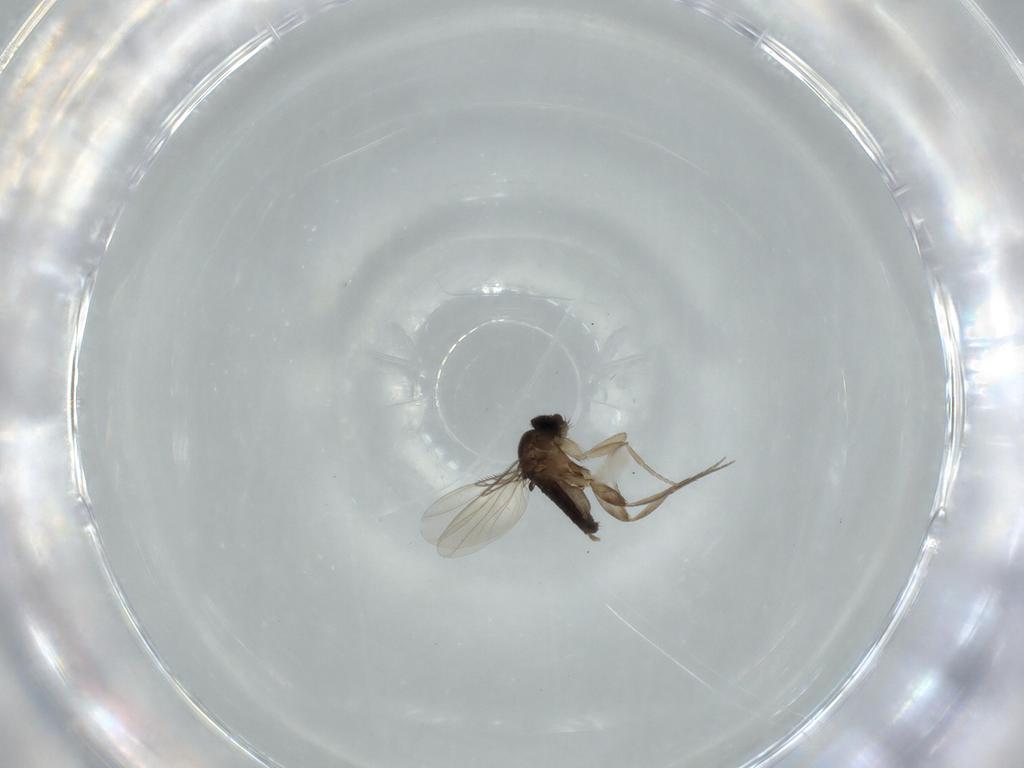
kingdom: Animalia
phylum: Arthropoda
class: Insecta
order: Diptera
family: Phoridae
